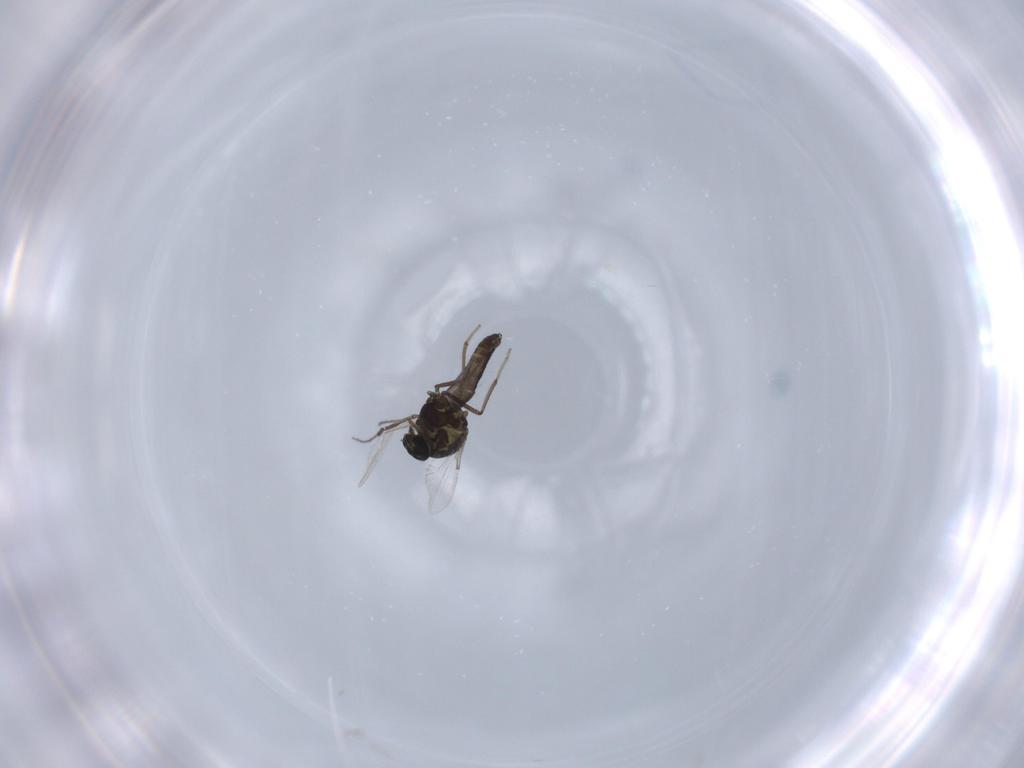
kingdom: Animalia
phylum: Arthropoda
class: Insecta
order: Diptera
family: Ceratopogonidae
